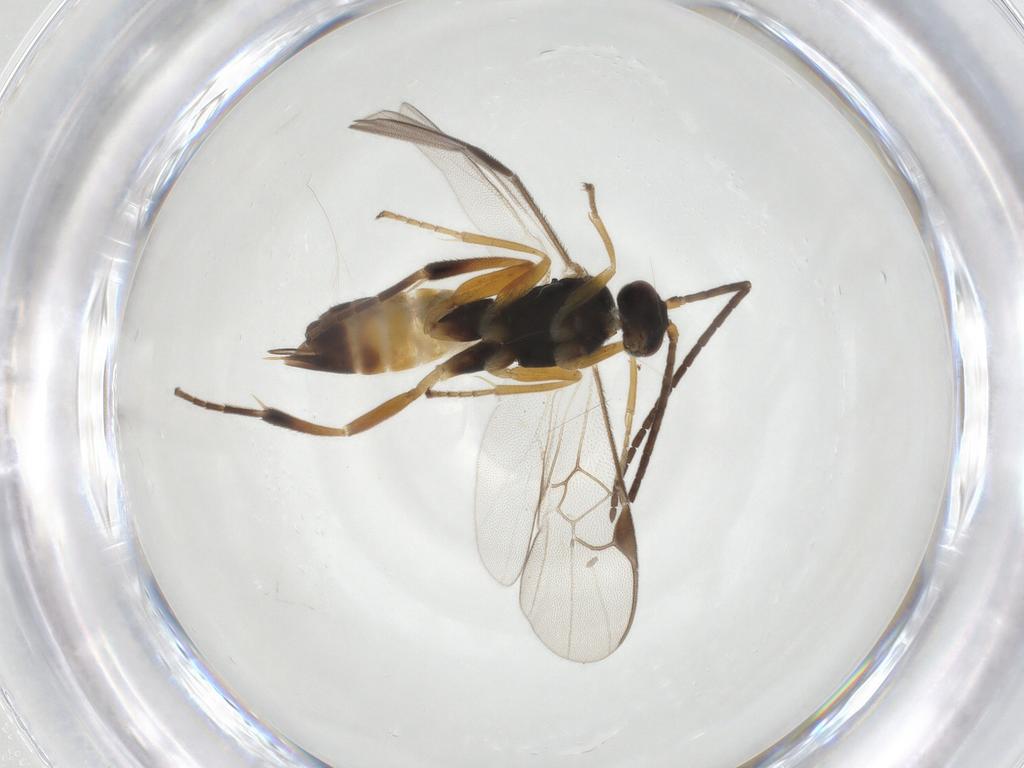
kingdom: Animalia
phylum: Arthropoda
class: Insecta
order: Hymenoptera
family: Braconidae
